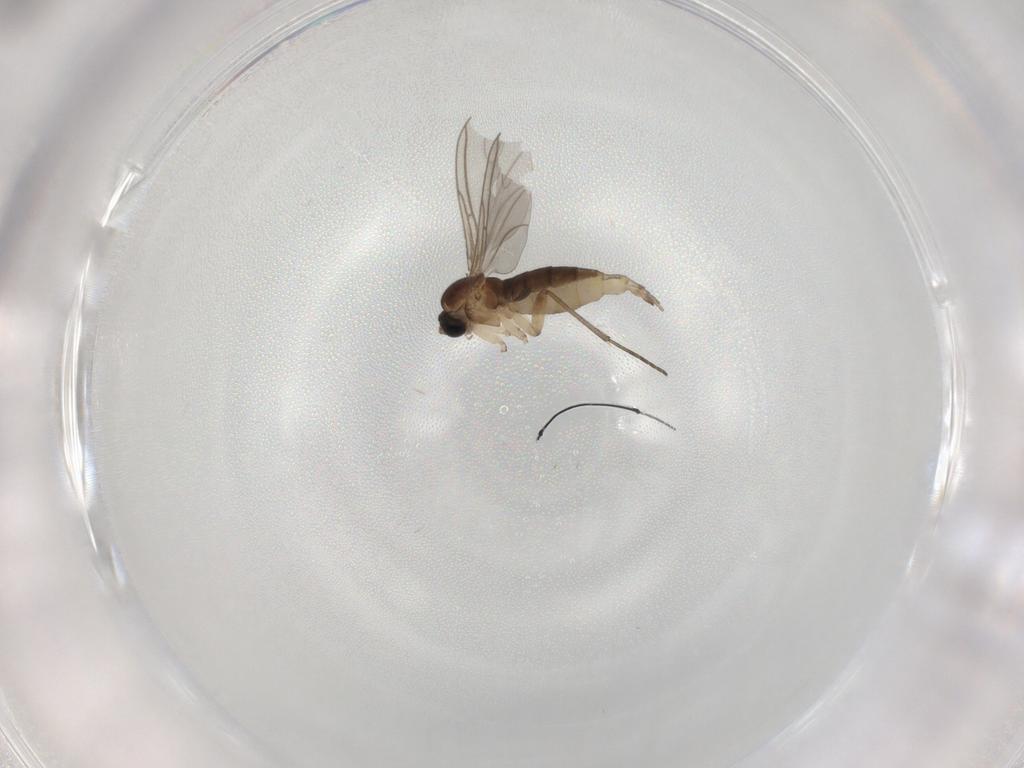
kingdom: Animalia
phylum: Arthropoda
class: Insecta
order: Diptera
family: Sciaridae
